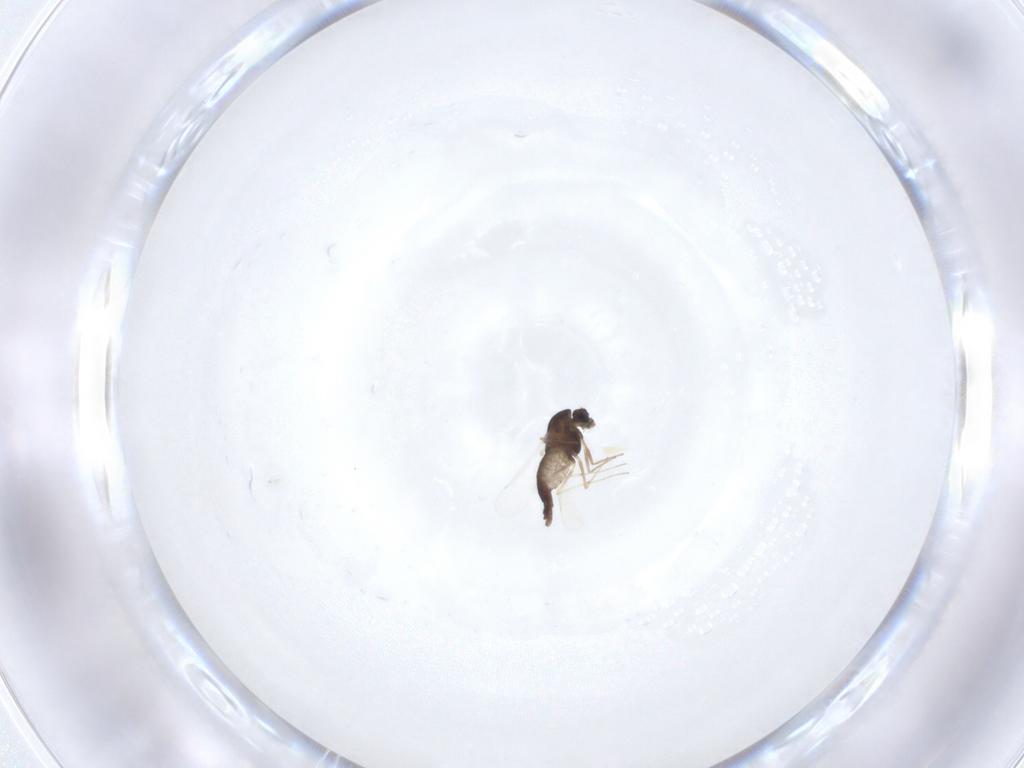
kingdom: Animalia
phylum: Arthropoda
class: Insecta
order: Diptera
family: Chironomidae
